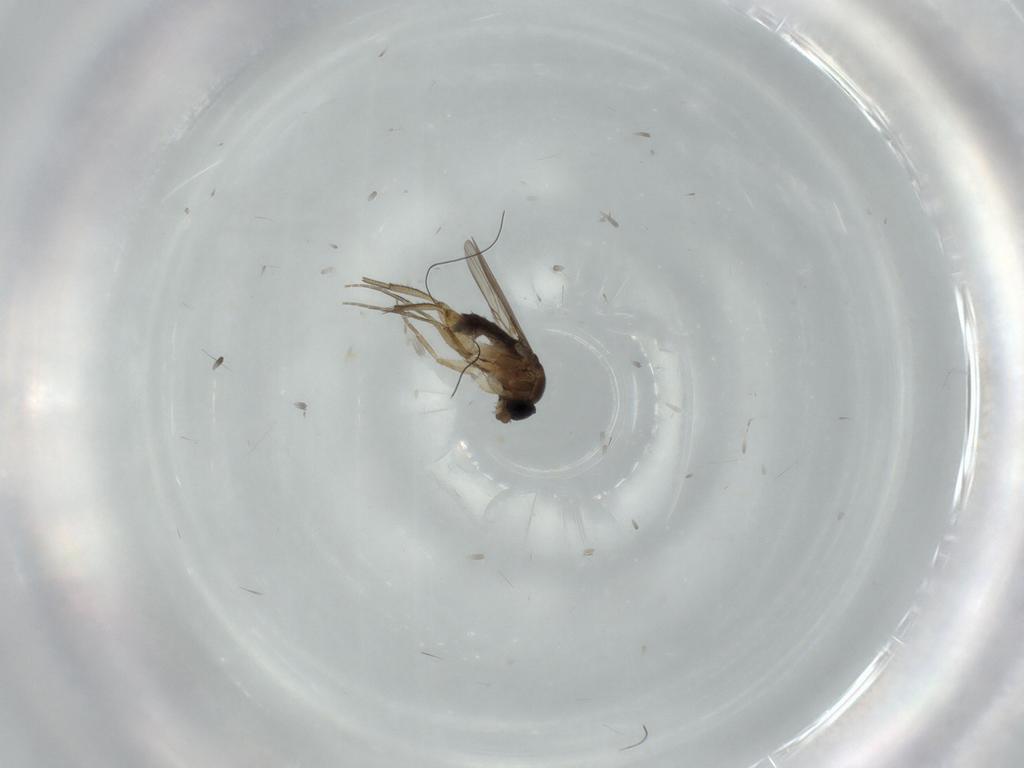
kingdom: Animalia
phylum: Arthropoda
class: Insecta
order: Diptera
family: Phoridae
